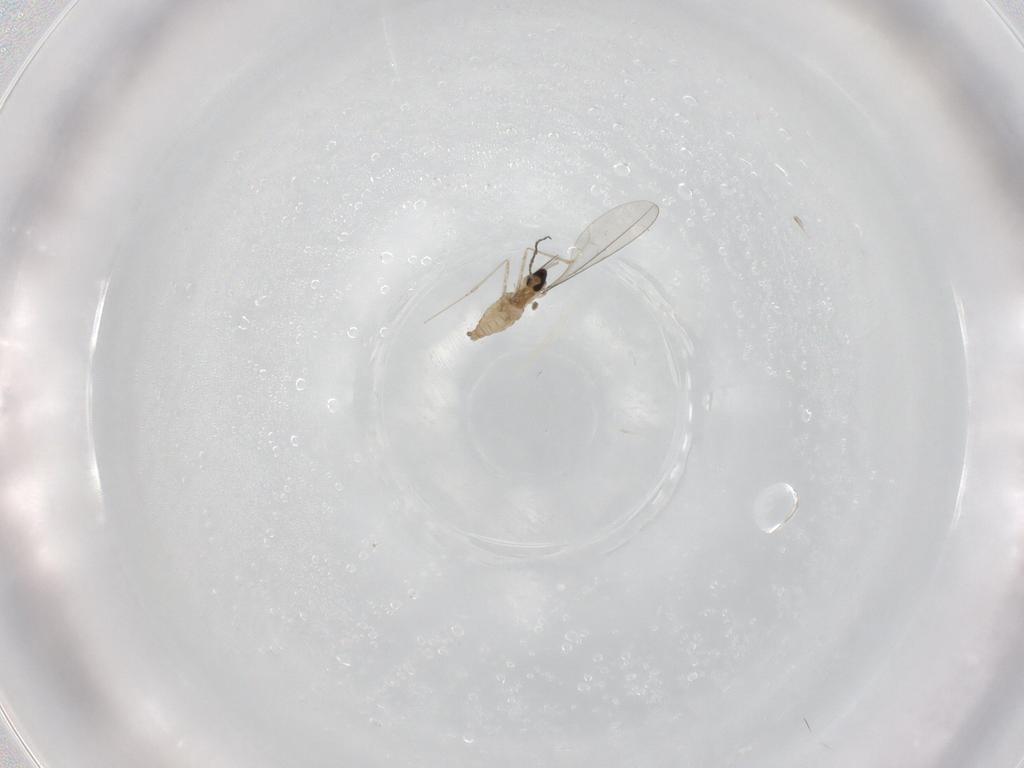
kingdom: Animalia
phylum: Arthropoda
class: Insecta
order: Diptera
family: Cecidomyiidae
